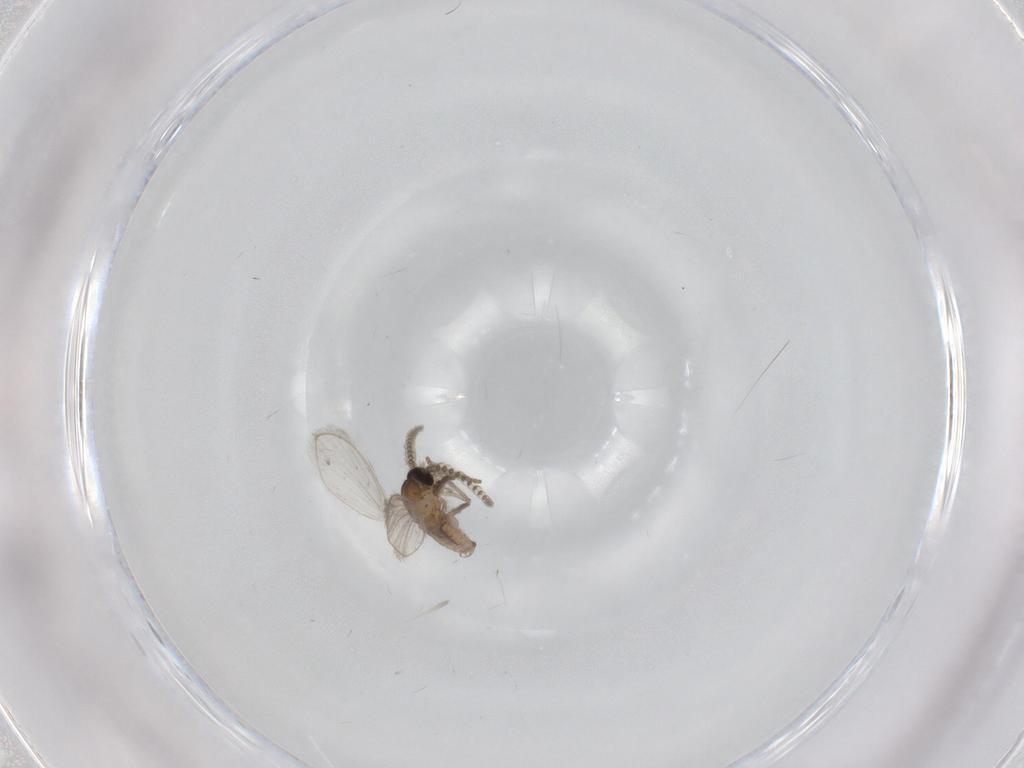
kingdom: Animalia
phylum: Arthropoda
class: Insecta
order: Diptera
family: Psychodidae
